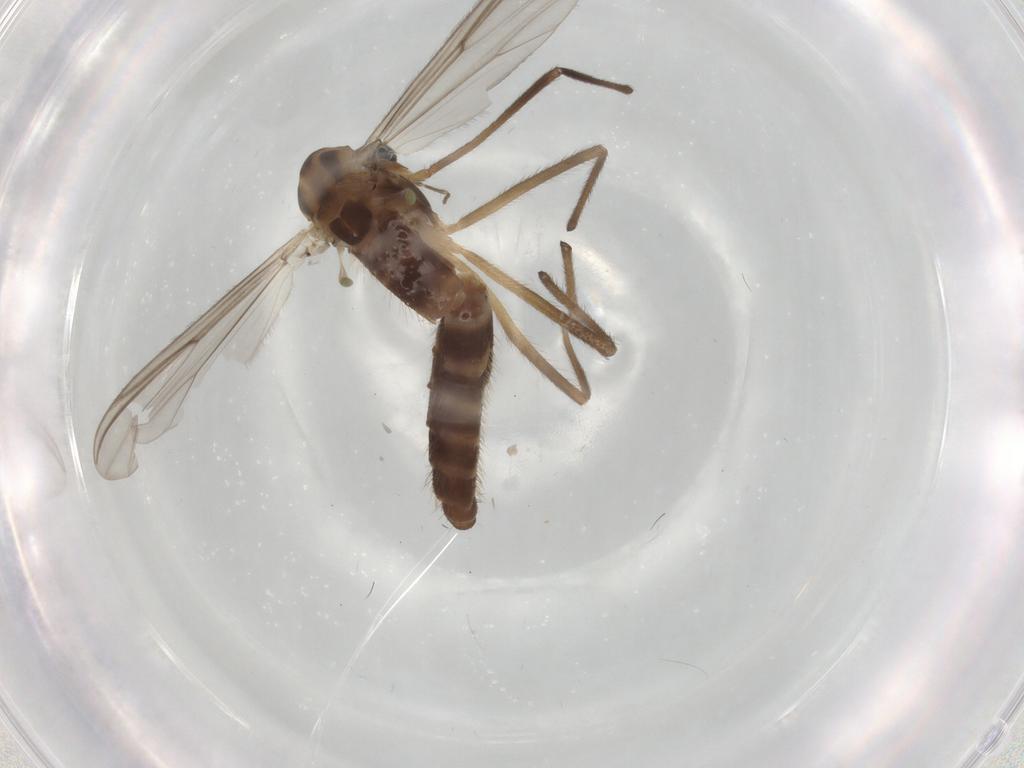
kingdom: Animalia
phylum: Arthropoda
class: Insecta
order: Diptera
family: Chironomidae
